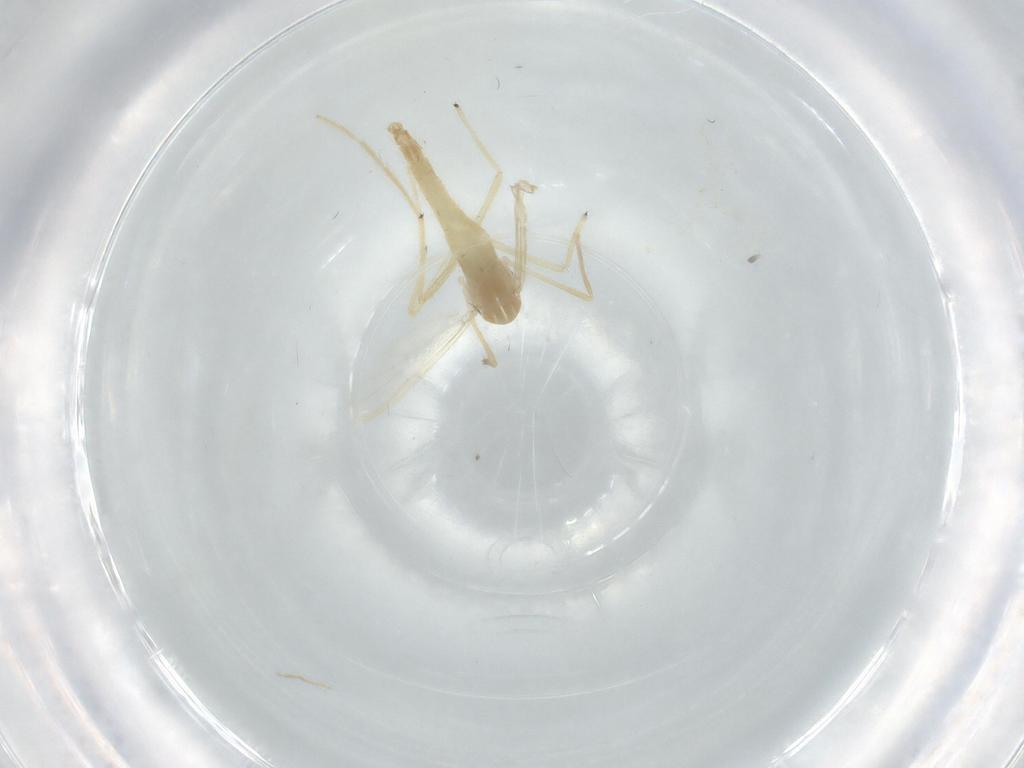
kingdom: Animalia
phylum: Arthropoda
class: Insecta
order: Diptera
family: Chironomidae
